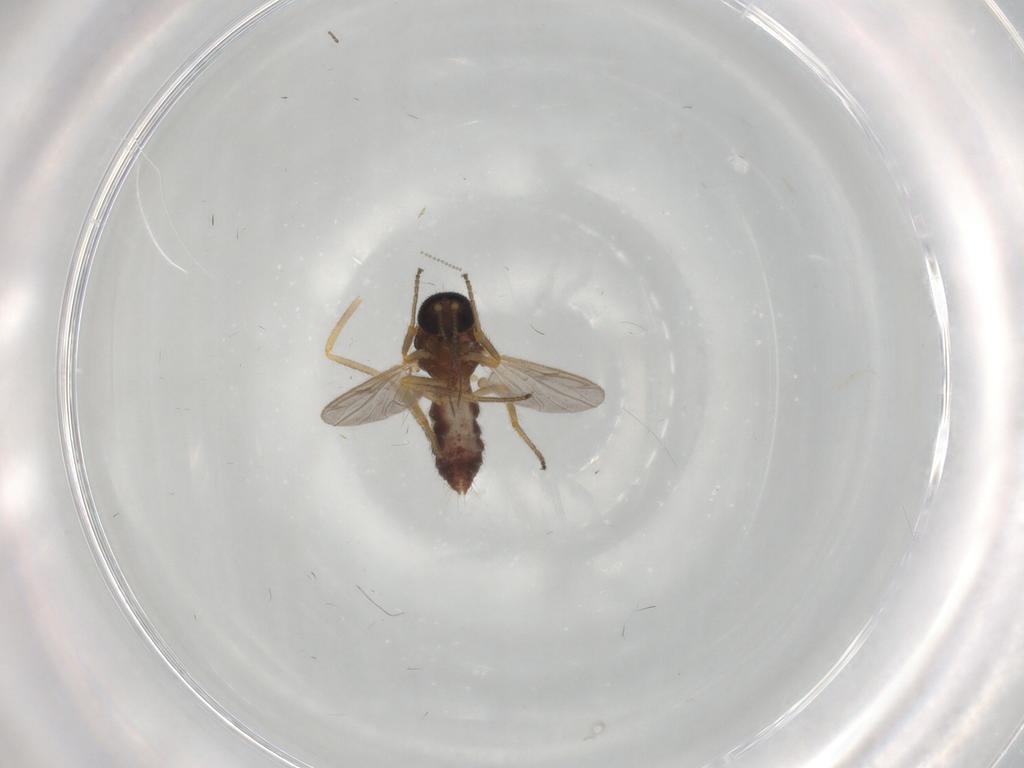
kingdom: Animalia
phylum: Arthropoda
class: Insecta
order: Diptera
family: Ceratopogonidae
